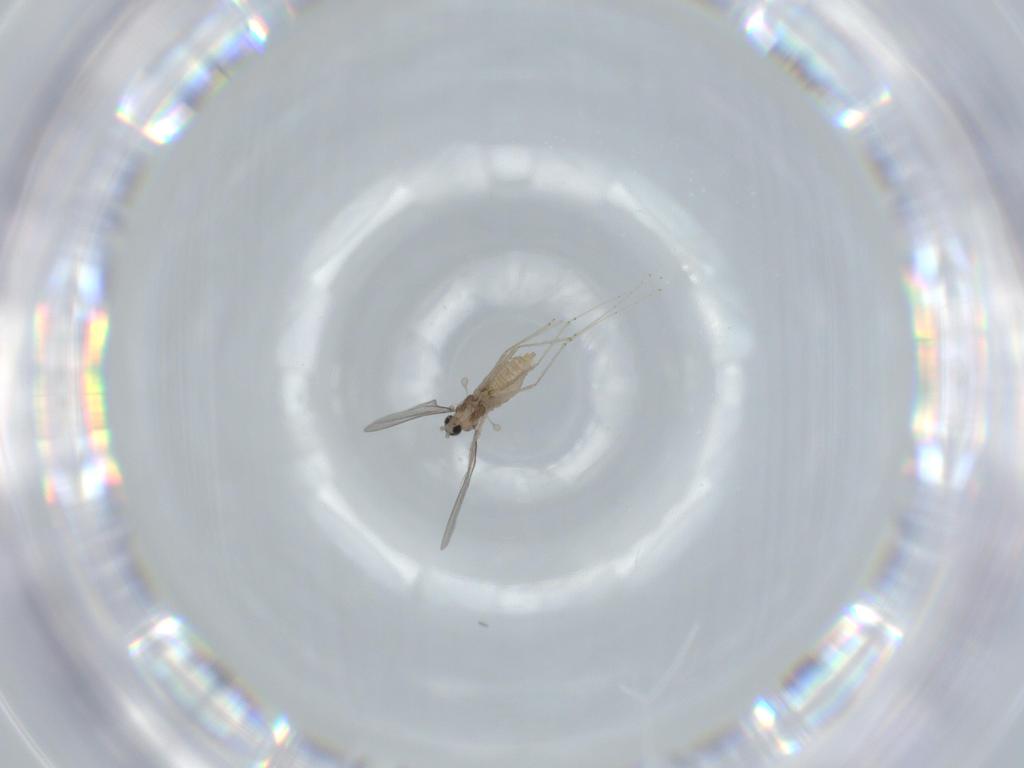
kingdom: Animalia
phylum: Arthropoda
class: Insecta
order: Diptera
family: Cecidomyiidae
